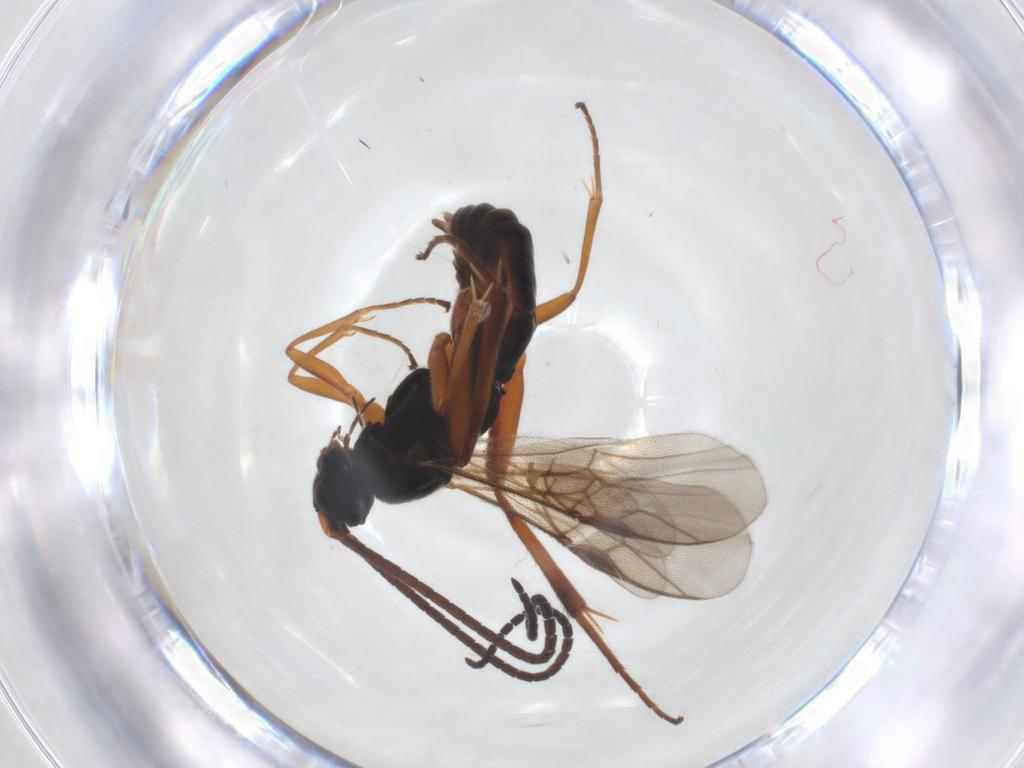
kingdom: Animalia
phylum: Arthropoda
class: Insecta
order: Hymenoptera
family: Braconidae
